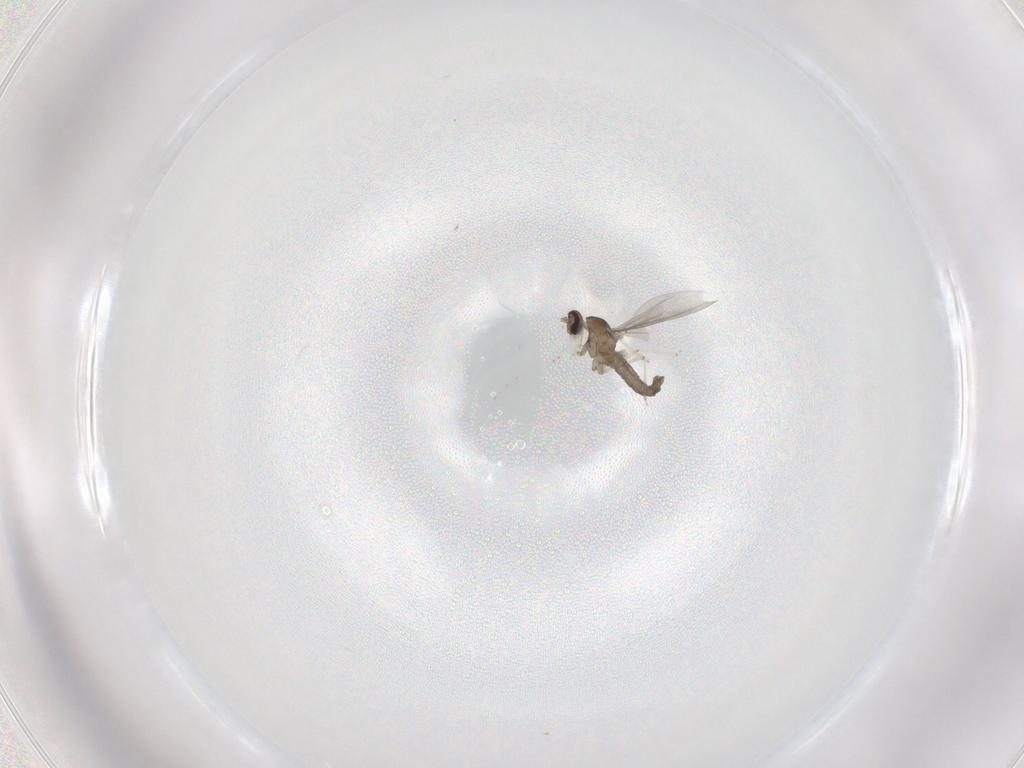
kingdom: Animalia
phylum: Arthropoda
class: Insecta
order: Diptera
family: Cecidomyiidae
